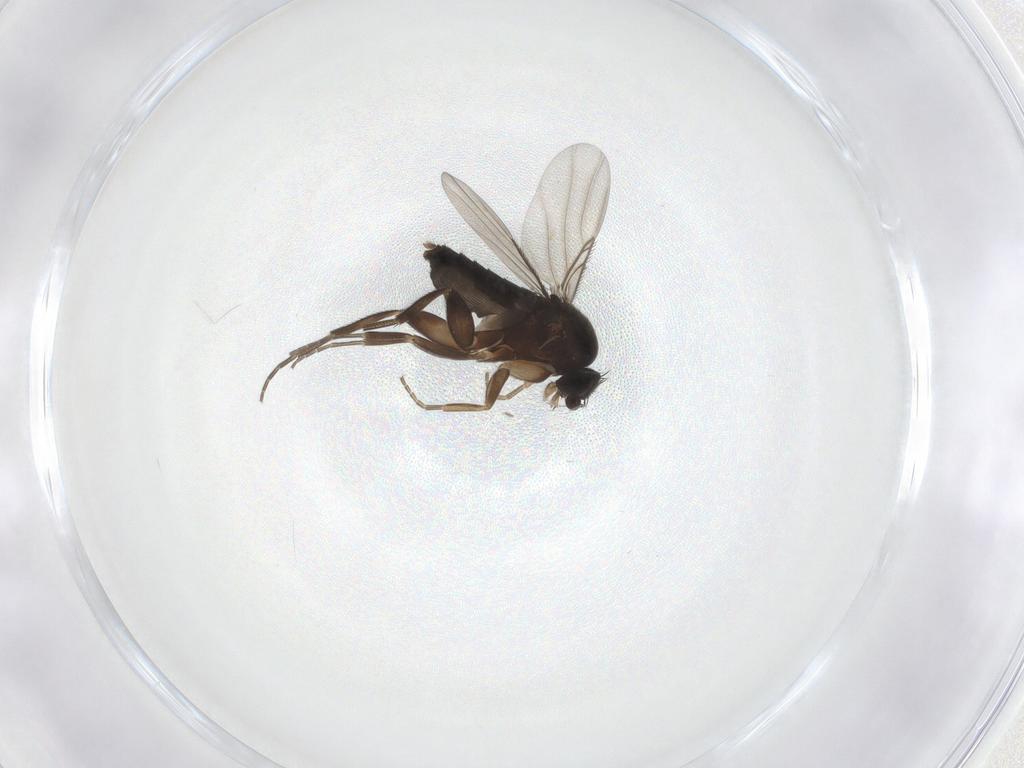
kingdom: Animalia
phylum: Arthropoda
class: Insecta
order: Diptera
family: Phoridae
